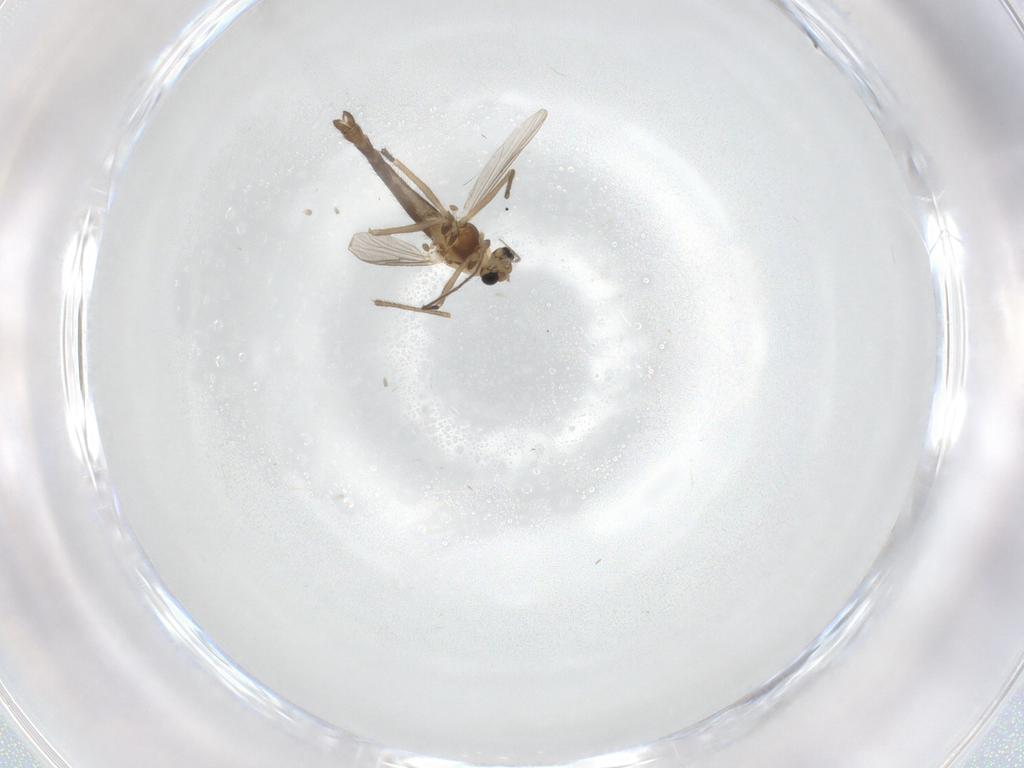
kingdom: Animalia
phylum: Arthropoda
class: Insecta
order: Diptera
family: Chironomidae
